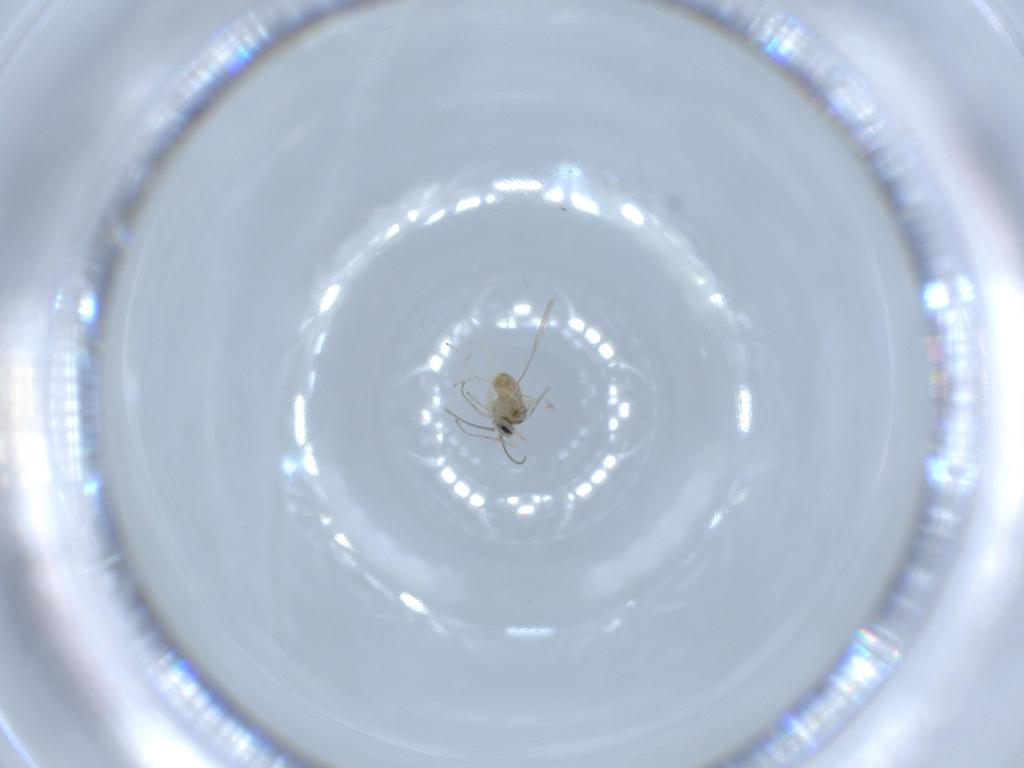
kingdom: Animalia
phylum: Arthropoda
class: Insecta
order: Diptera
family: Cecidomyiidae
